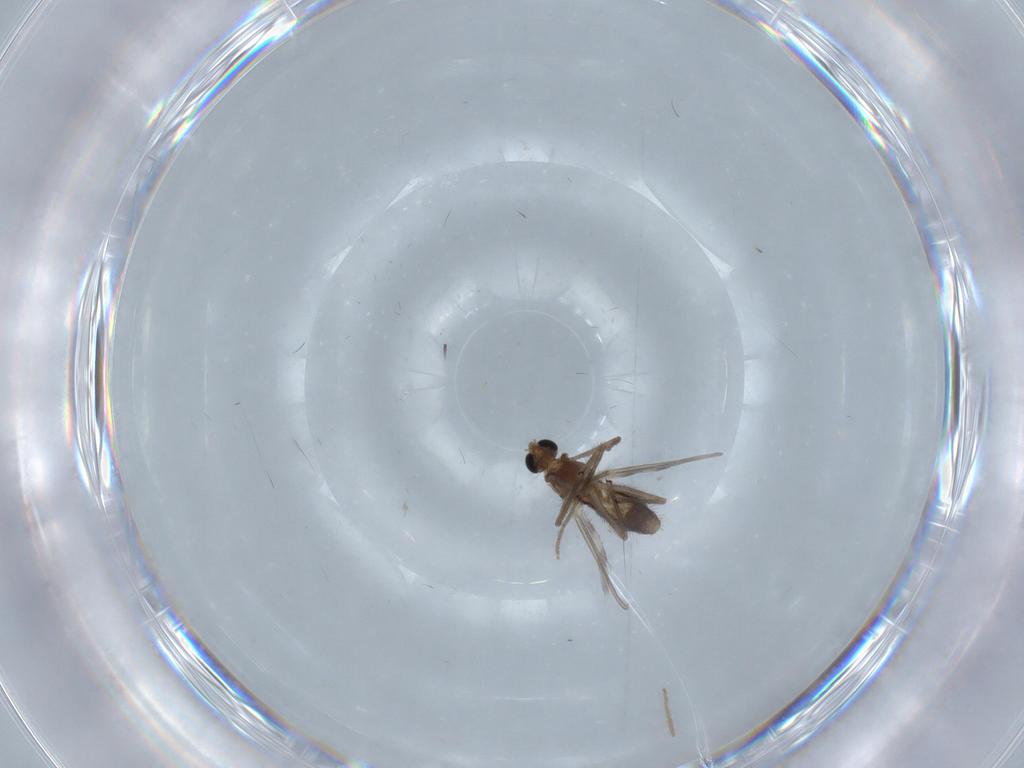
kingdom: Animalia
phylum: Arthropoda
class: Insecta
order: Diptera
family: Chironomidae
